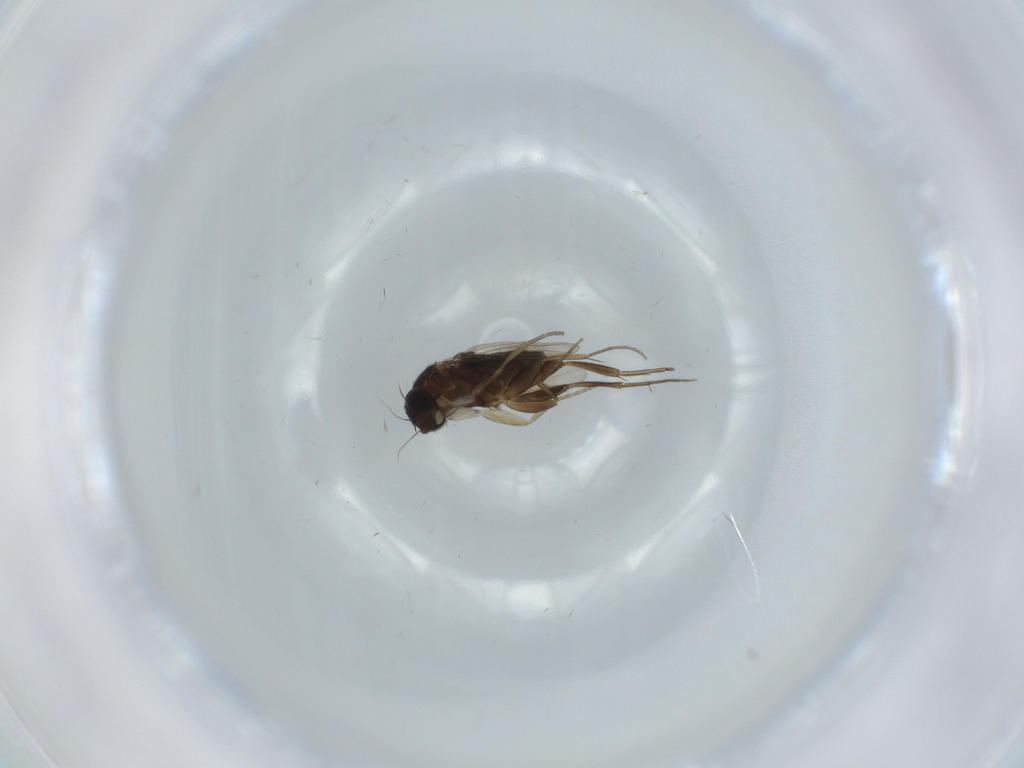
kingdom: Animalia
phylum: Arthropoda
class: Insecta
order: Diptera
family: Phoridae
